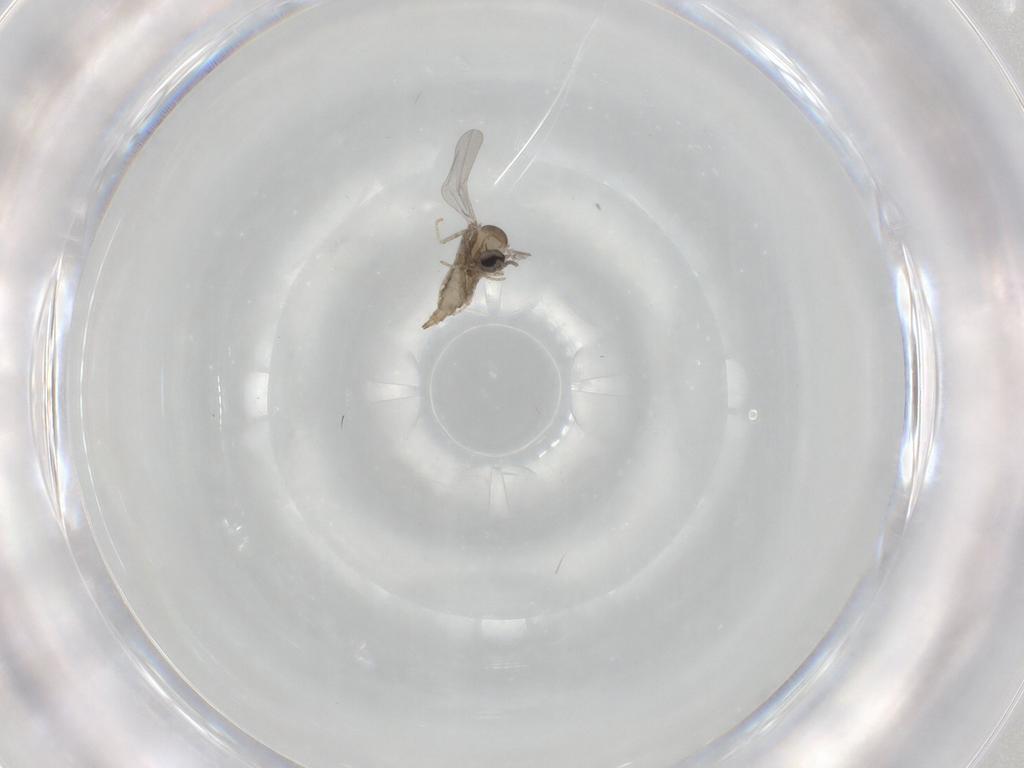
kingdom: Animalia
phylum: Arthropoda
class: Insecta
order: Diptera
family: Cecidomyiidae
